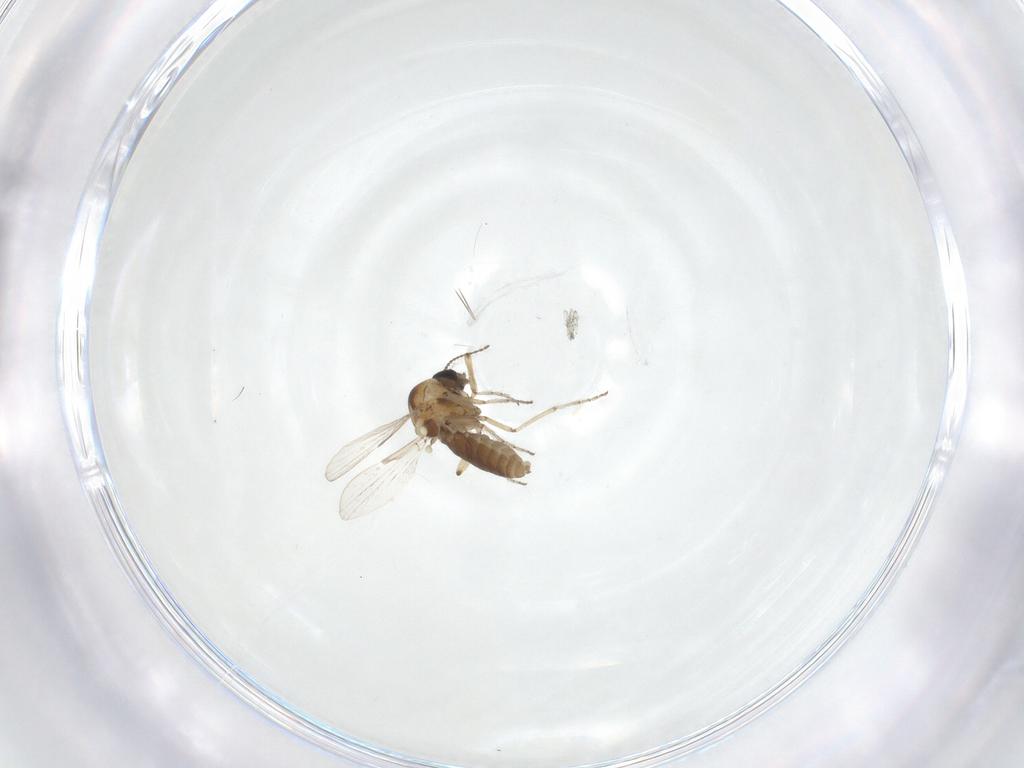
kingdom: Animalia
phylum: Arthropoda
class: Insecta
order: Diptera
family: Ceratopogonidae
